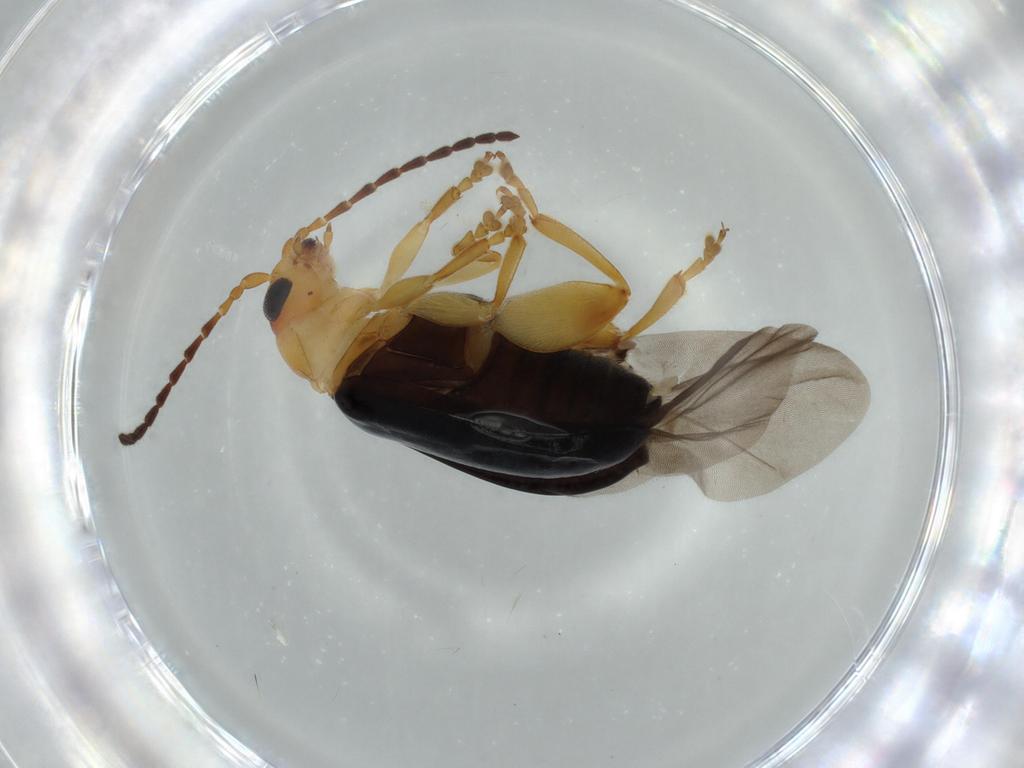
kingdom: Animalia
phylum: Arthropoda
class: Insecta
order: Coleoptera
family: Chrysomelidae
